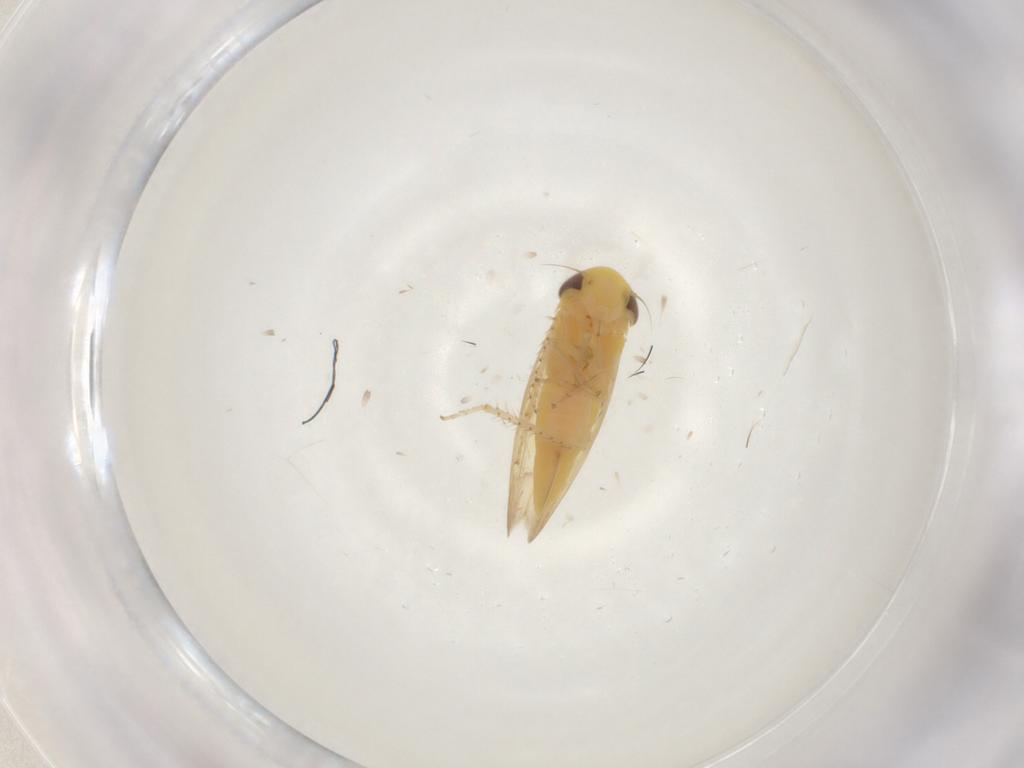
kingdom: Animalia
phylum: Arthropoda
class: Insecta
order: Hemiptera
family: Cicadellidae
